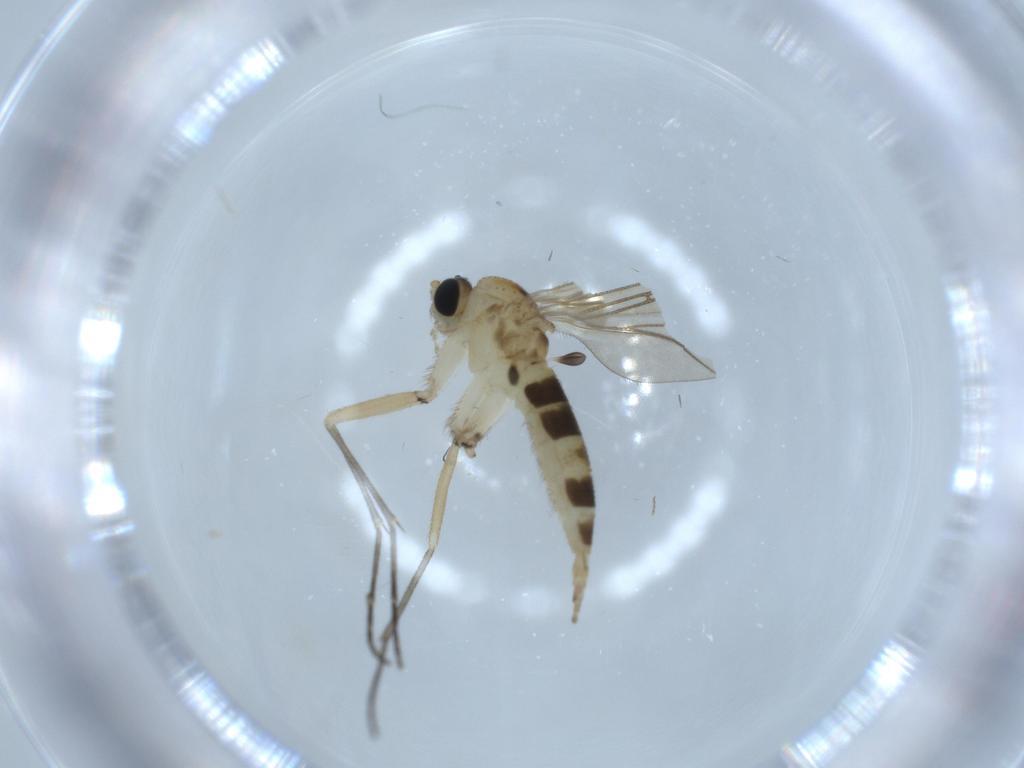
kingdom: Animalia
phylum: Arthropoda
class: Insecta
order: Diptera
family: Sciaridae
